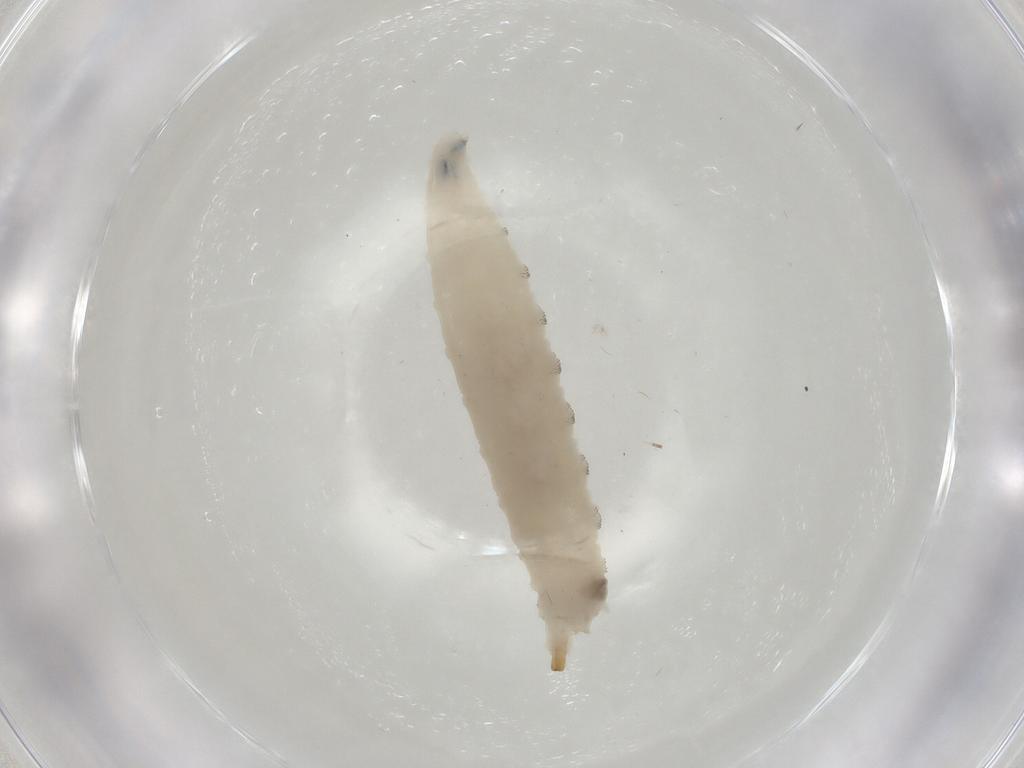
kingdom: Animalia
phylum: Arthropoda
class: Insecta
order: Diptera
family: Drosophilidae
